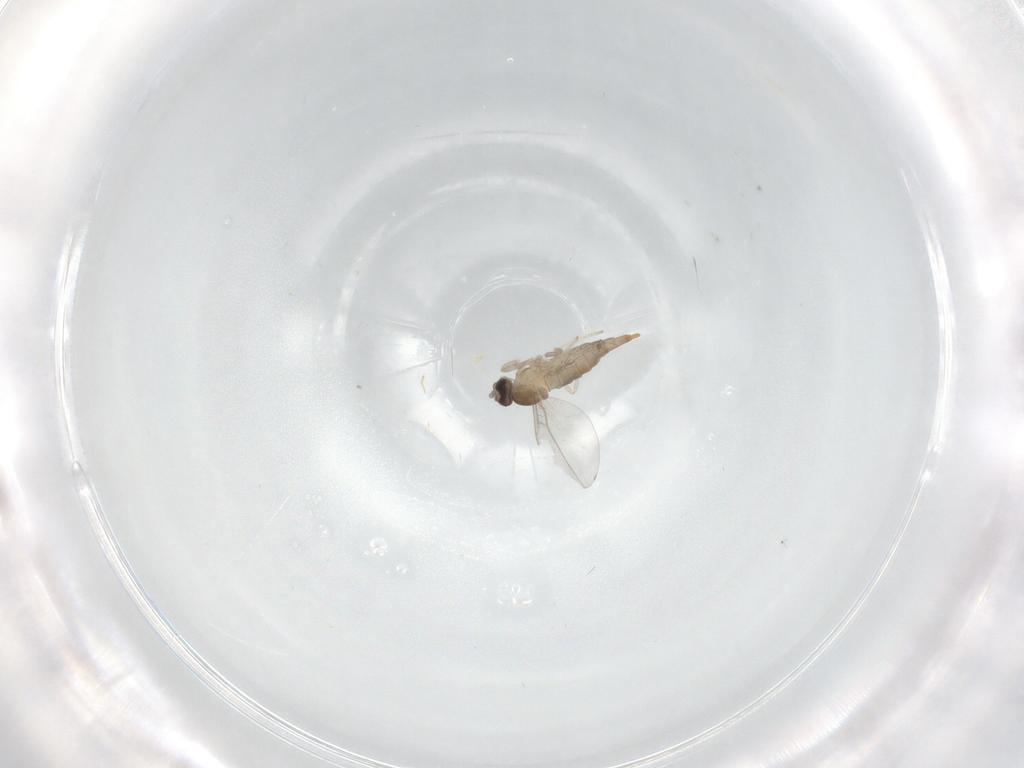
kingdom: Animalia
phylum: Arthropoda
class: Insecta
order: Diptera
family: Cecidomyiidae
